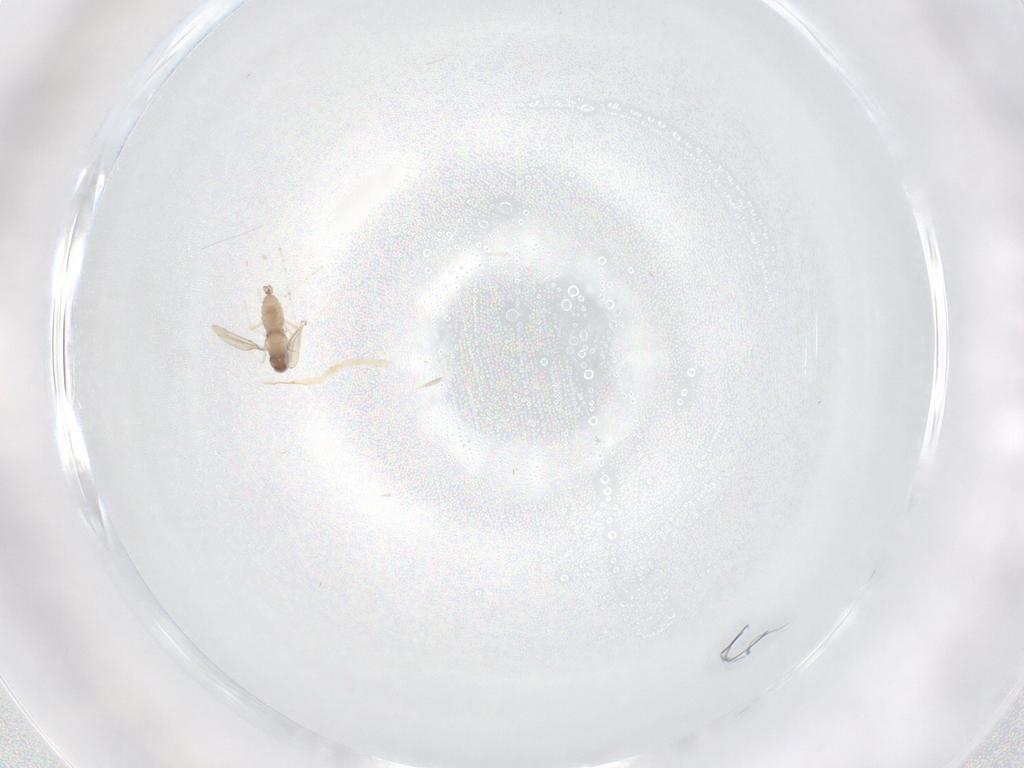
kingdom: Animalia
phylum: Arthropoda
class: Insecta
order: Diptera
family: Cecidomyiidae
